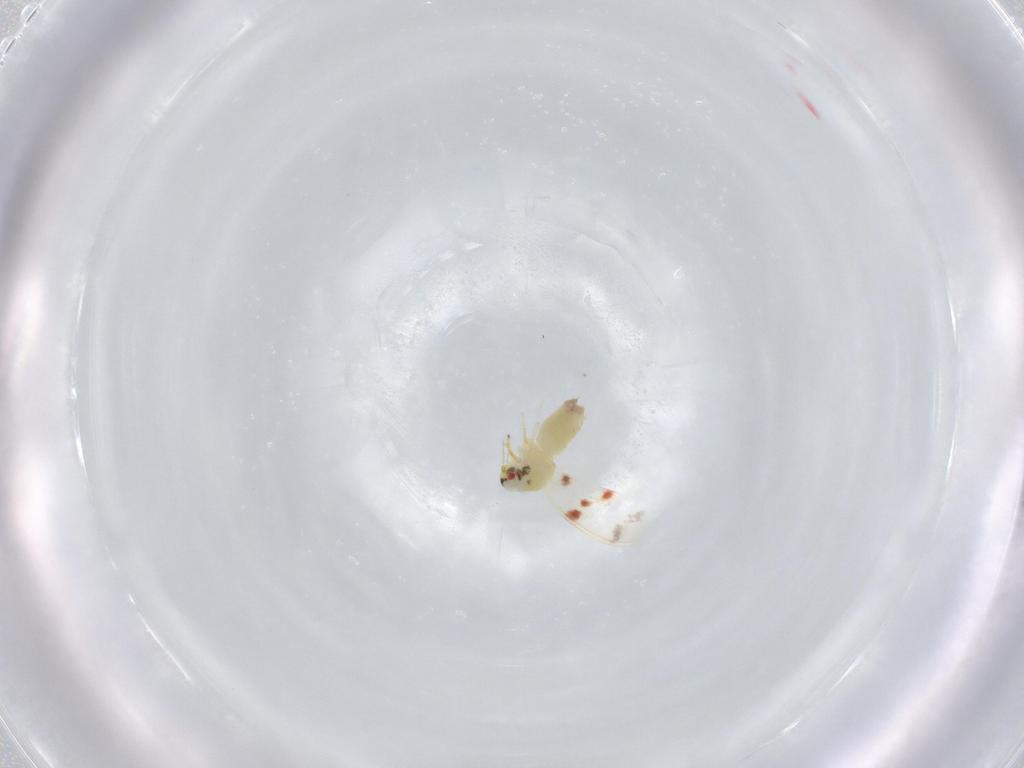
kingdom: Animalia
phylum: Arthropoda
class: Insecta
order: Hemiptera
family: Aleyrodidae
